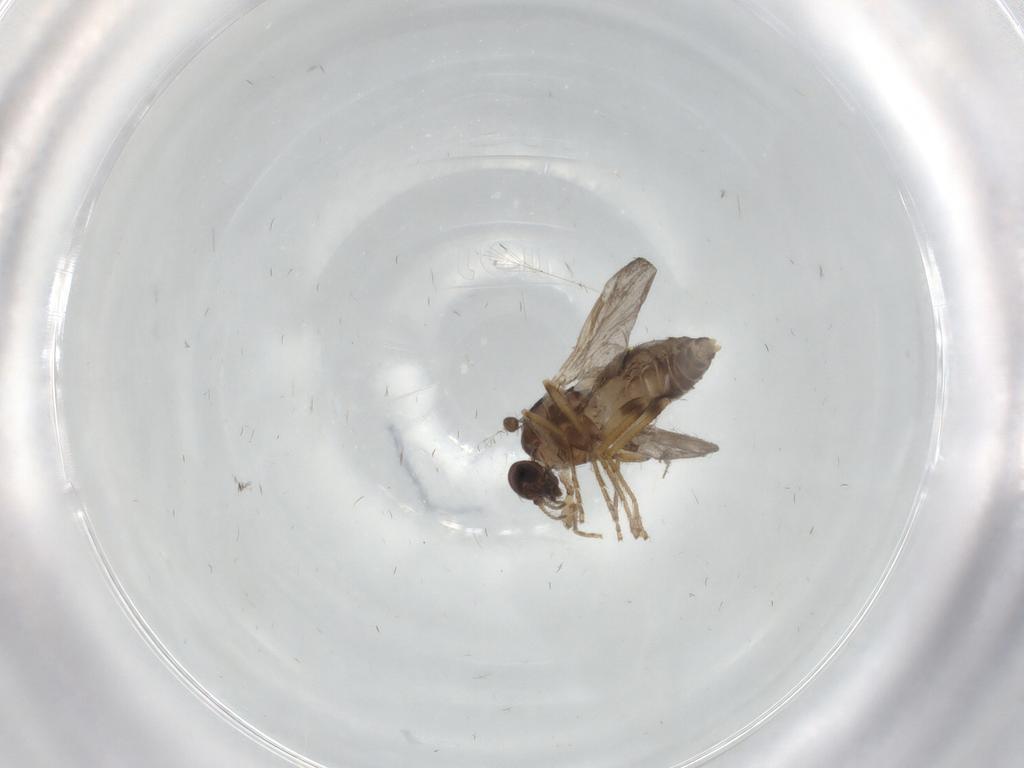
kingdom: Animalia
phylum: Arthropoda
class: Insecta
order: Diptera
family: Ceratopogonidae
